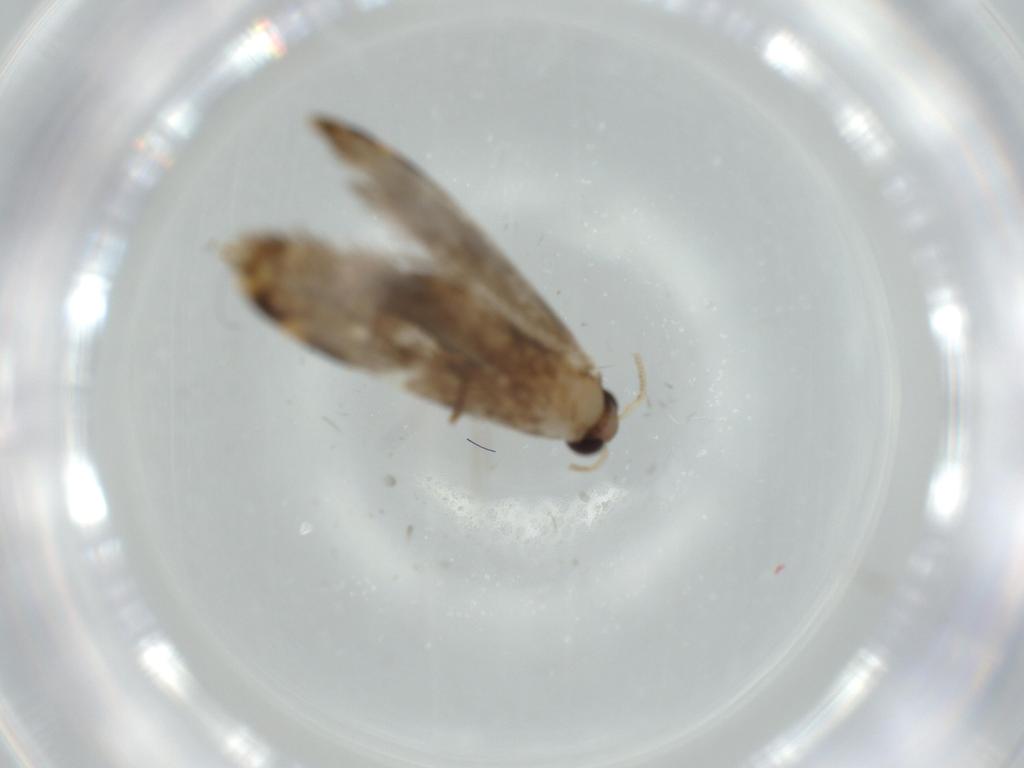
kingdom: Animalia
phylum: Arthropoda
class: Insecta
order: Lepidoptera
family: Tineidae
